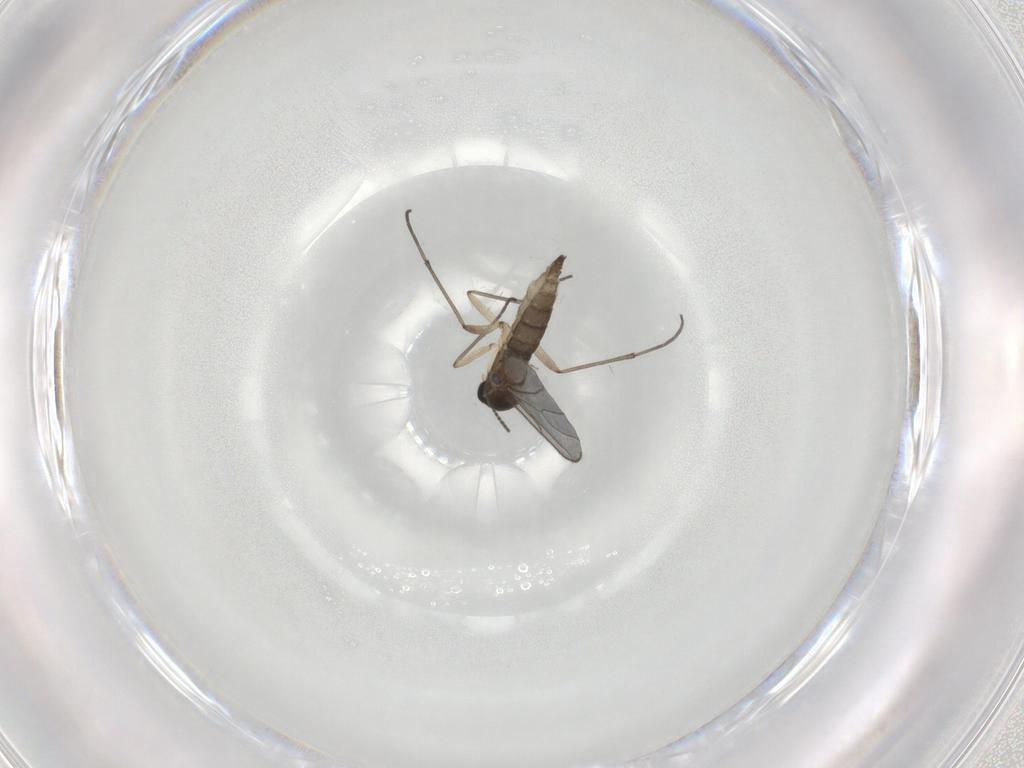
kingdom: Animalia
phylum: Arthropoda
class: Insecta
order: Diptera
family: Sciaridae
